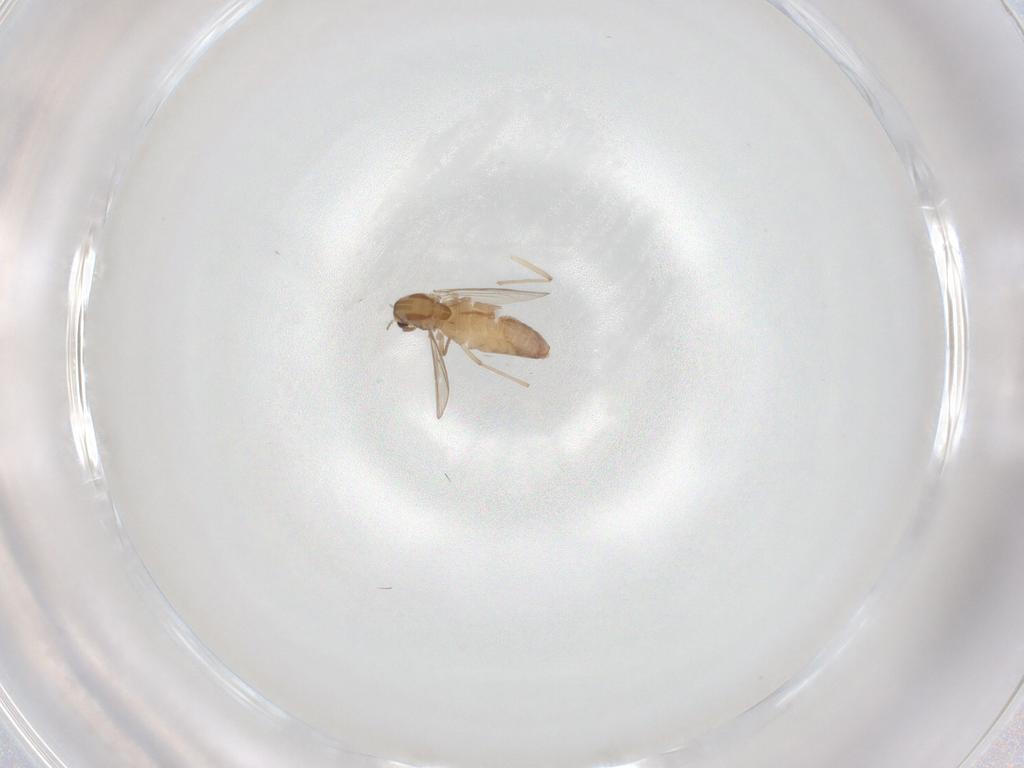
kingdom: Animalia
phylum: Arthropoda
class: Insecta
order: Diptera
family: Chironomidae
